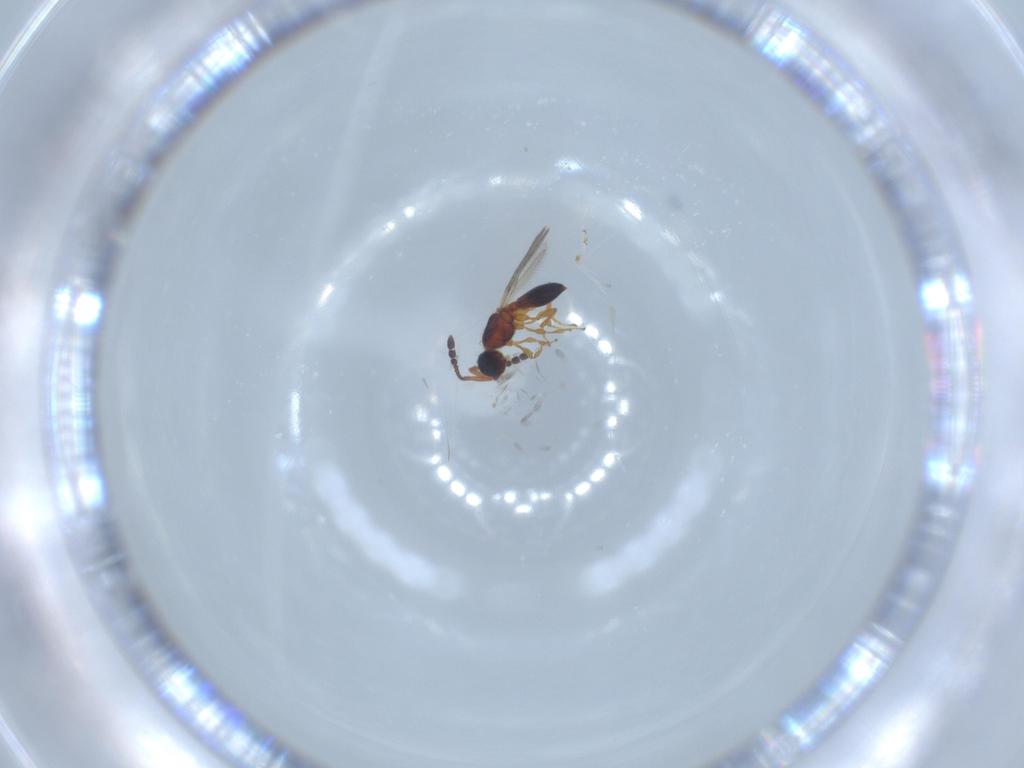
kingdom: Animalia
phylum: Arthropoda
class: Insecta
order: Hymenoptera
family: Diapriidae
